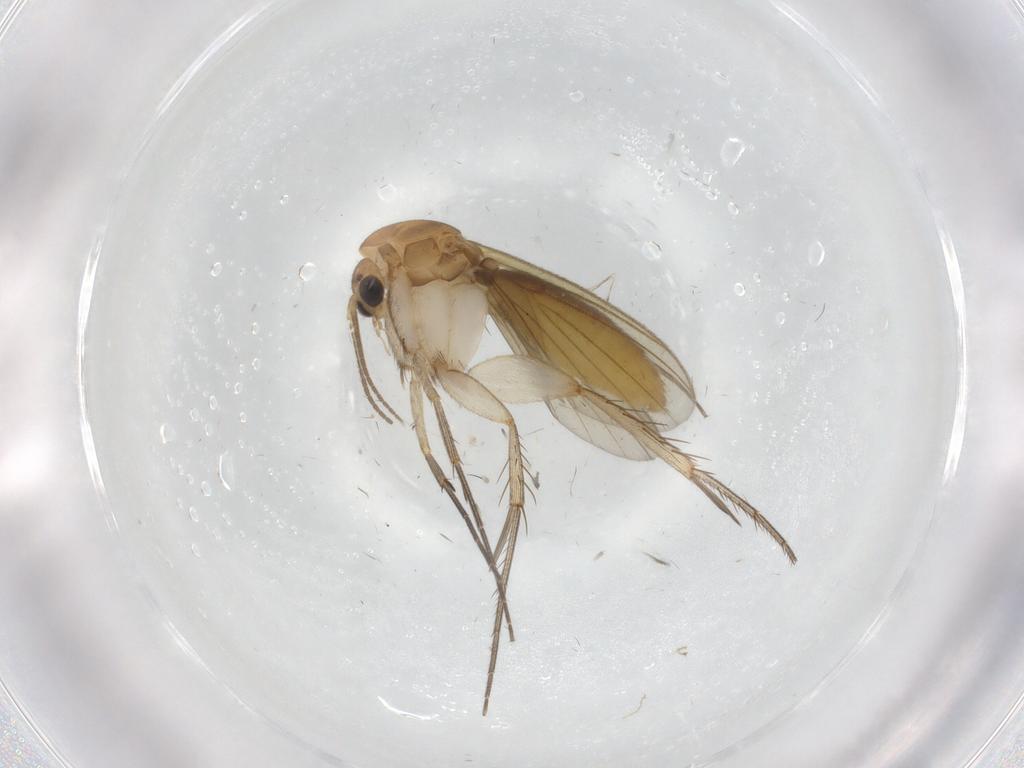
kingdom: Animalia
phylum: Arthropoda
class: Insecta
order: Diptera
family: Mycetophilidae
